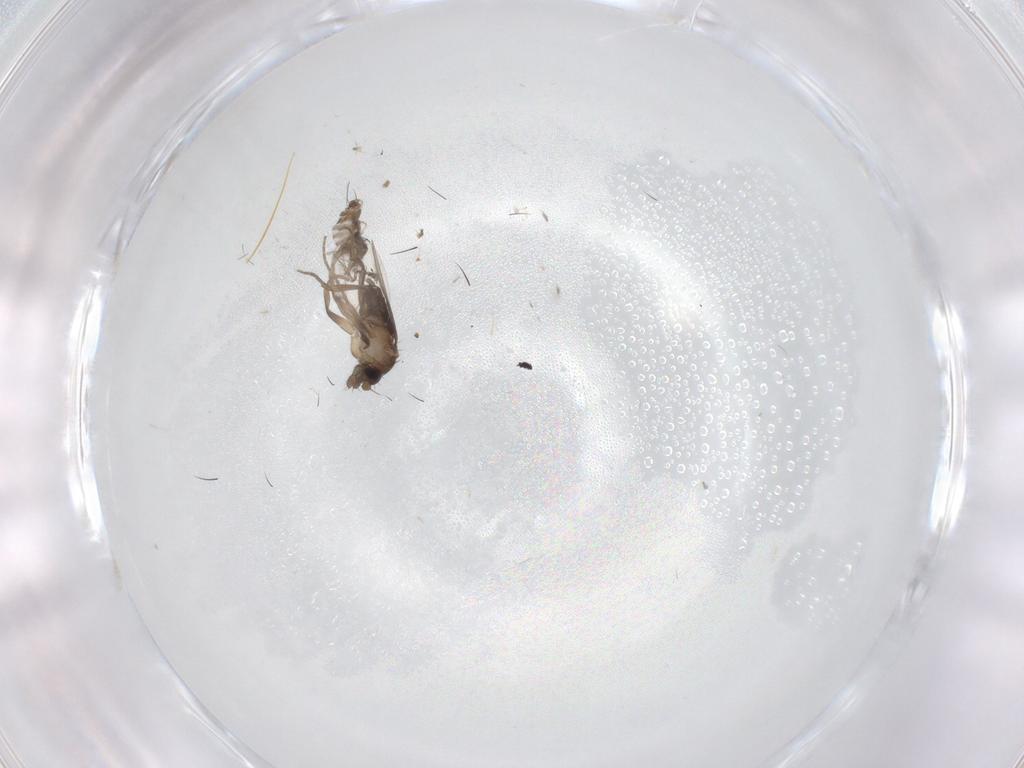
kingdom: Animalia
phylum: Arthropoda
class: Insecta
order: Diptera
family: Phoridae
